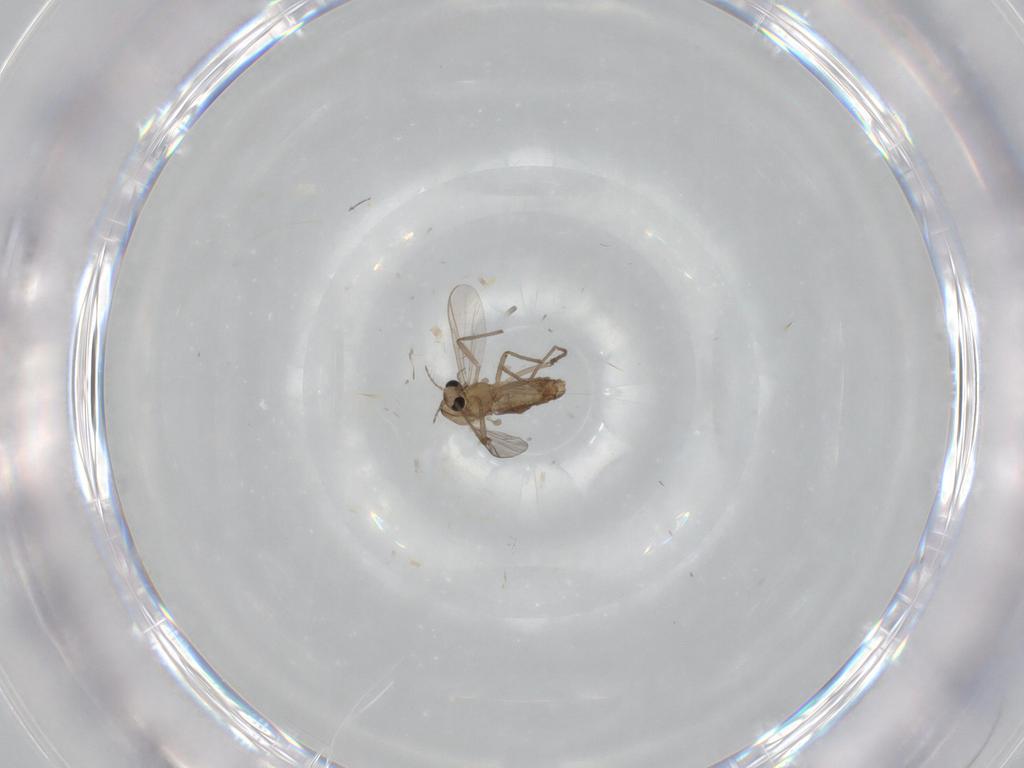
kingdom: Animalia
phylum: Arthropoda
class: Insecta
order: Diptera
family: Chironomidae
